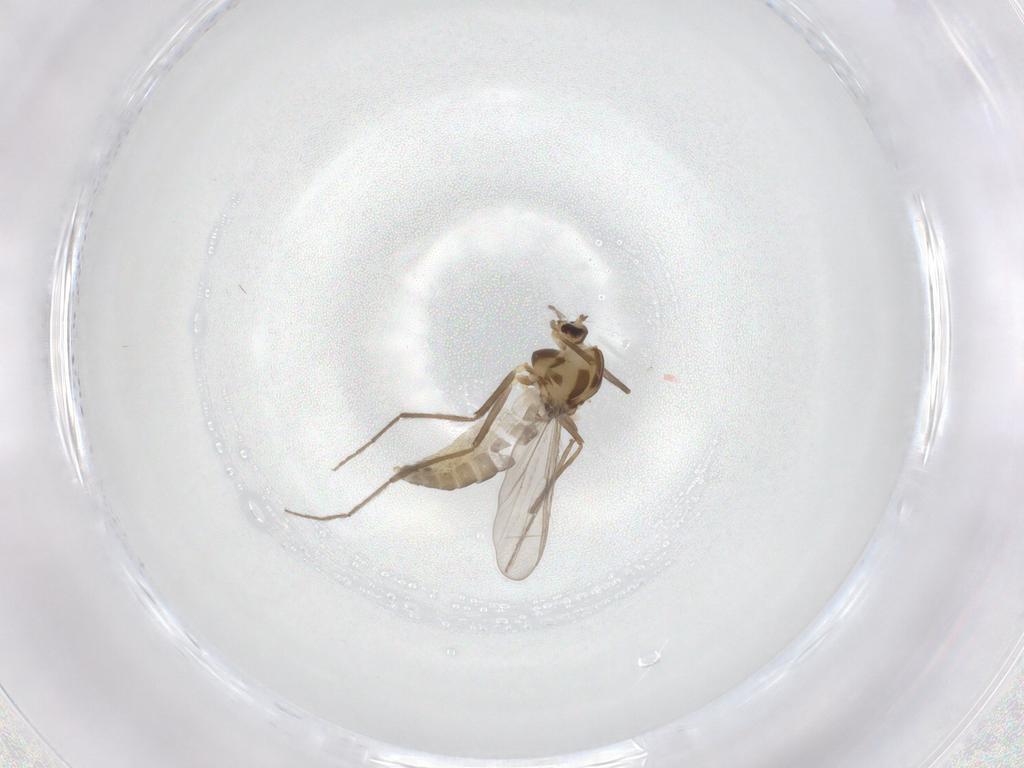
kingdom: Animalia
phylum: Arthropoda
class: Insecta
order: Diptera
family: Chironomidae
